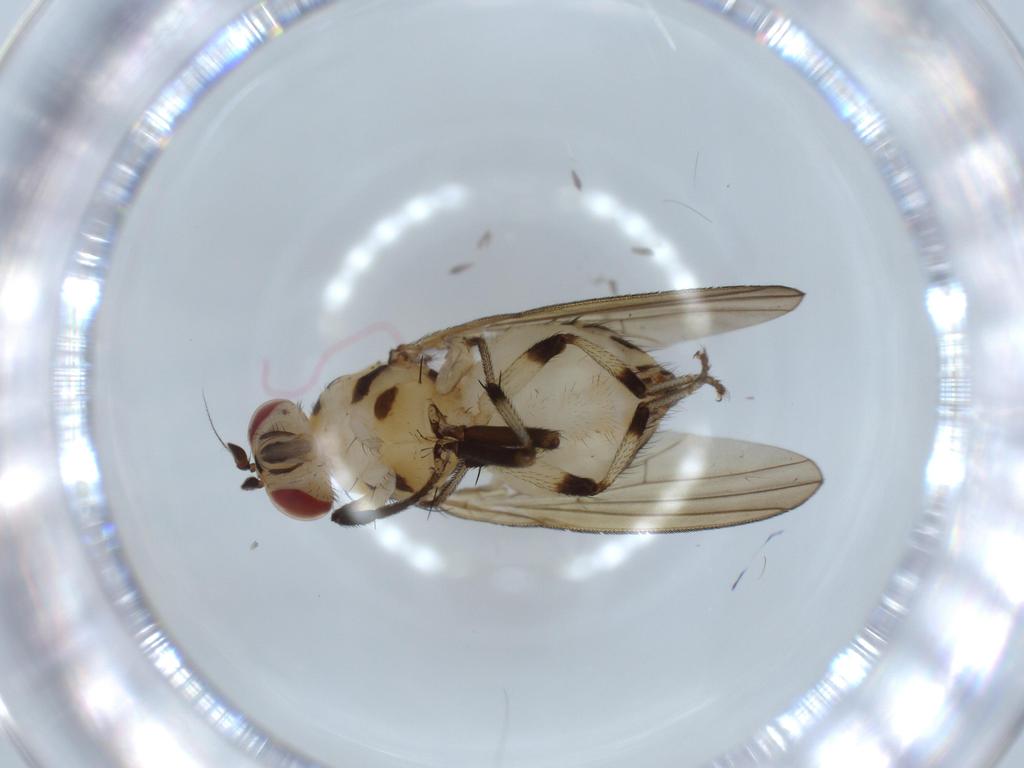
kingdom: Animalia
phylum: Arthropoda
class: Insecta
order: Diptera
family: Lauxaniidae
